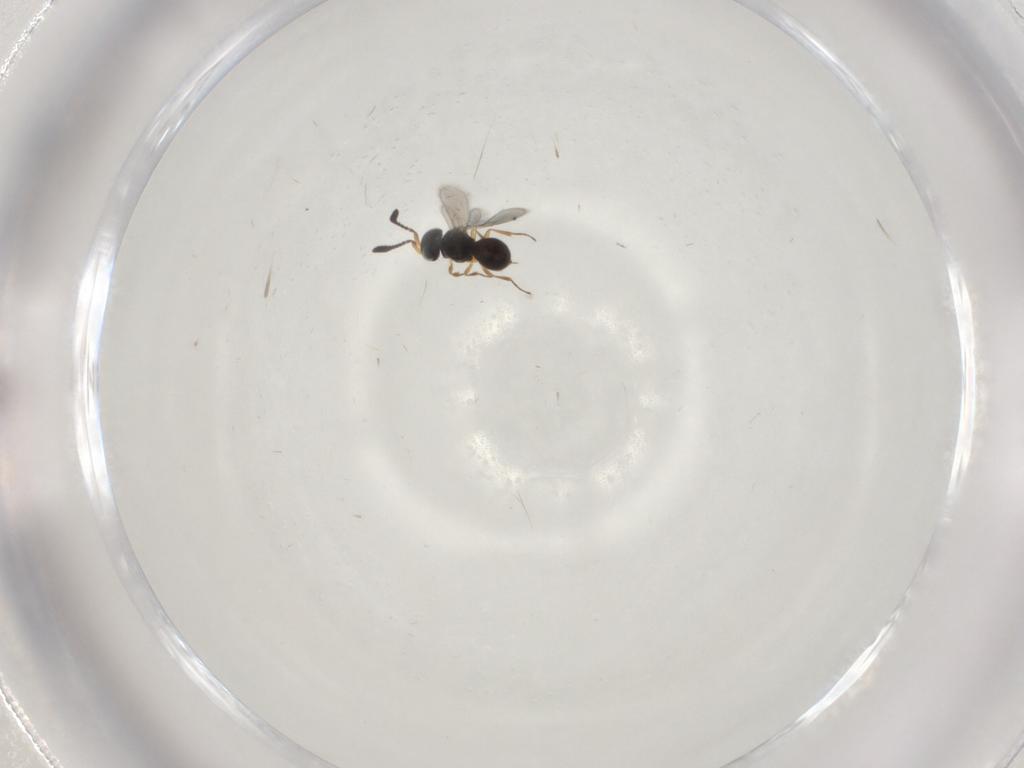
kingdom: Animalia
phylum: Arthropoda
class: Insecta
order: Hymenoptera
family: Scelionidae
